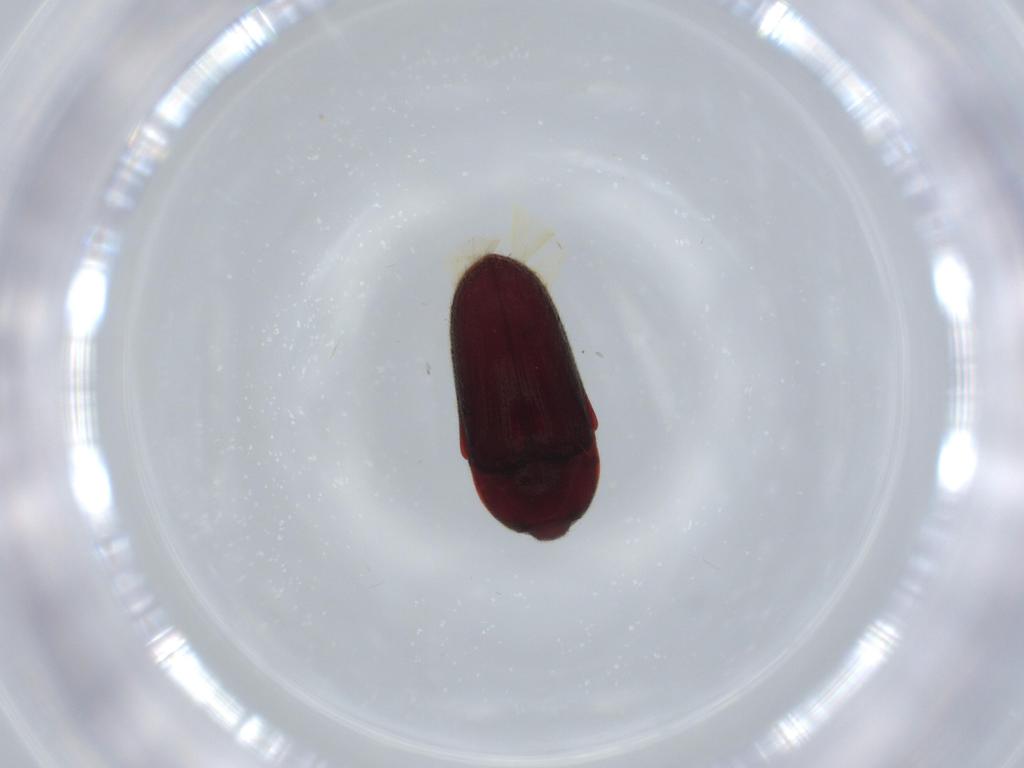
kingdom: Animalia
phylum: Arthropoda
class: Insecta
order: Coleoptera
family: Throscidae
